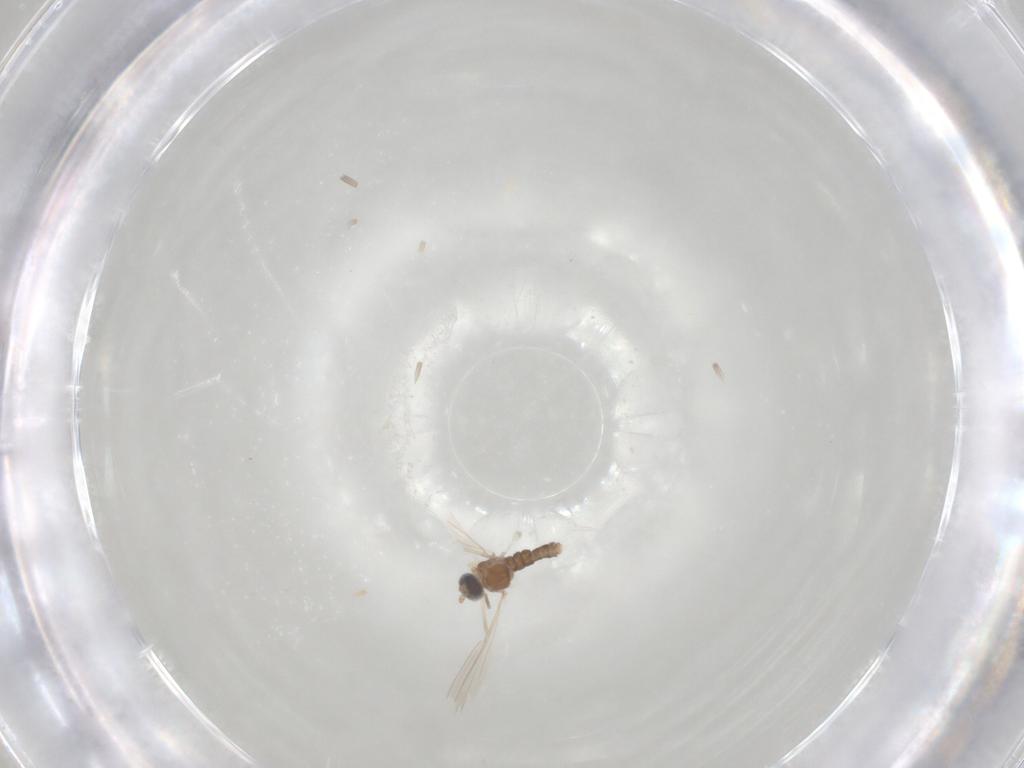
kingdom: Animalia
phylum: Arthropoda
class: Insecta
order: Diptera
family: Cecidomyiidae
